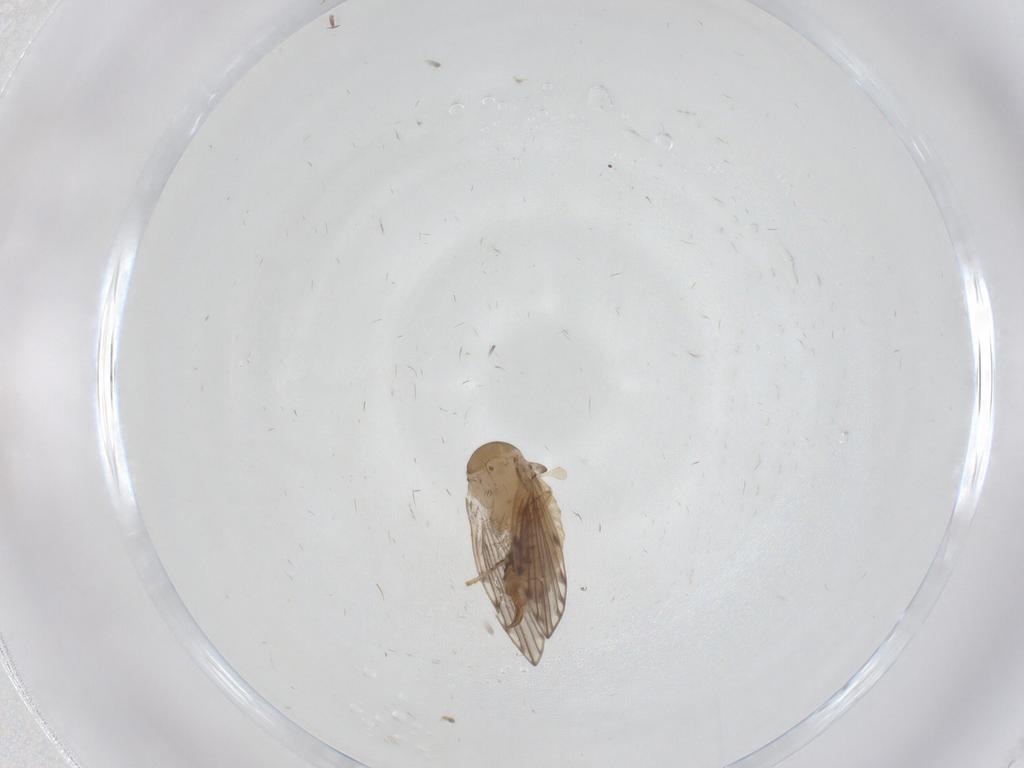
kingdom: Animalia
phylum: Arthropoda
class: Insecta
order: Diptera
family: Psychodidae
